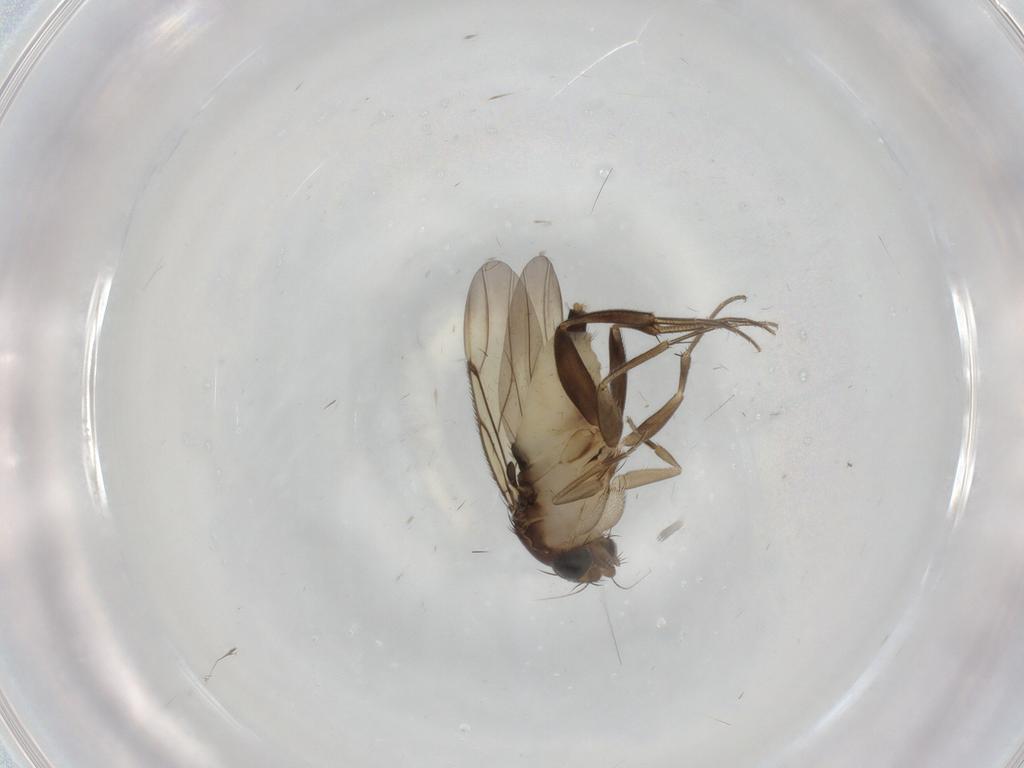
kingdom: Animalia
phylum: Arthropoda
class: Insecta
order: Diptera
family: Phoridae
